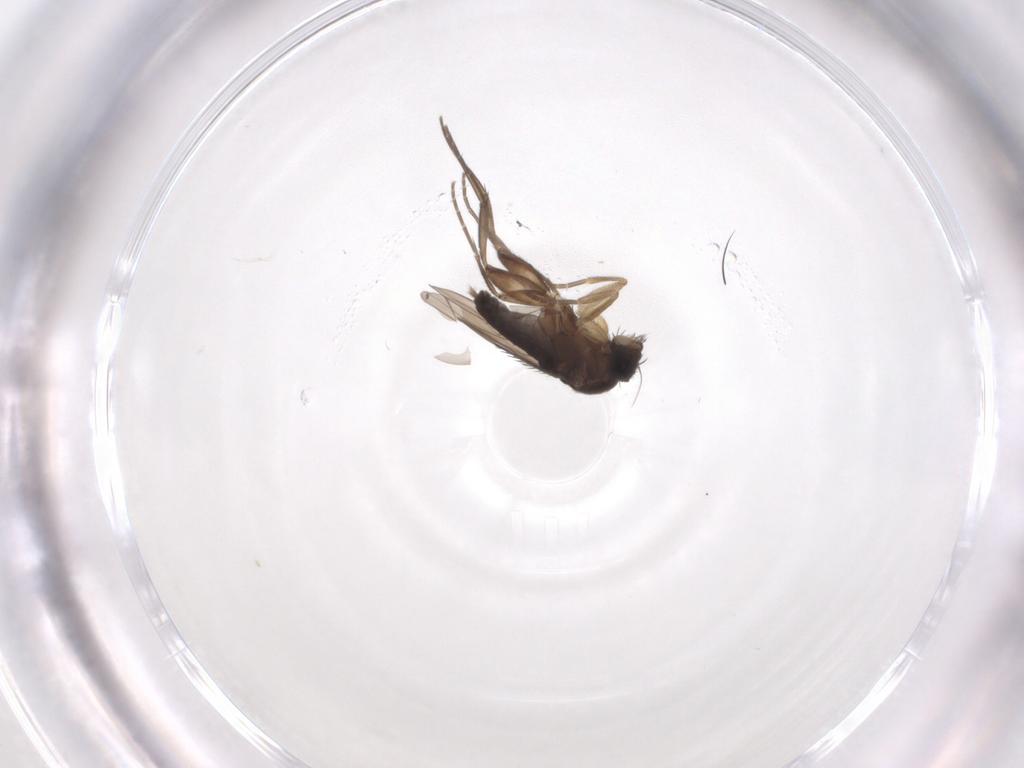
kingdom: Animalia
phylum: Arthropoda
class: Insecta
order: Diptera
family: Phoridae
